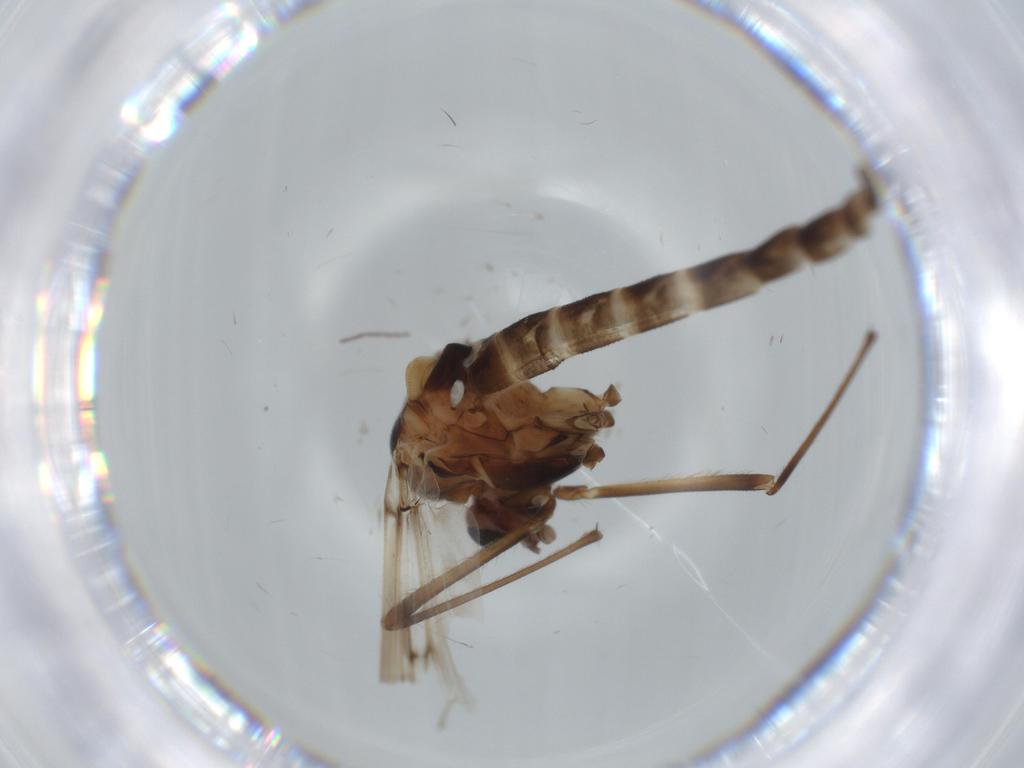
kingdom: Animalia
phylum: Arthropoda
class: Insecta
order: Diptera
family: Chironomidae
